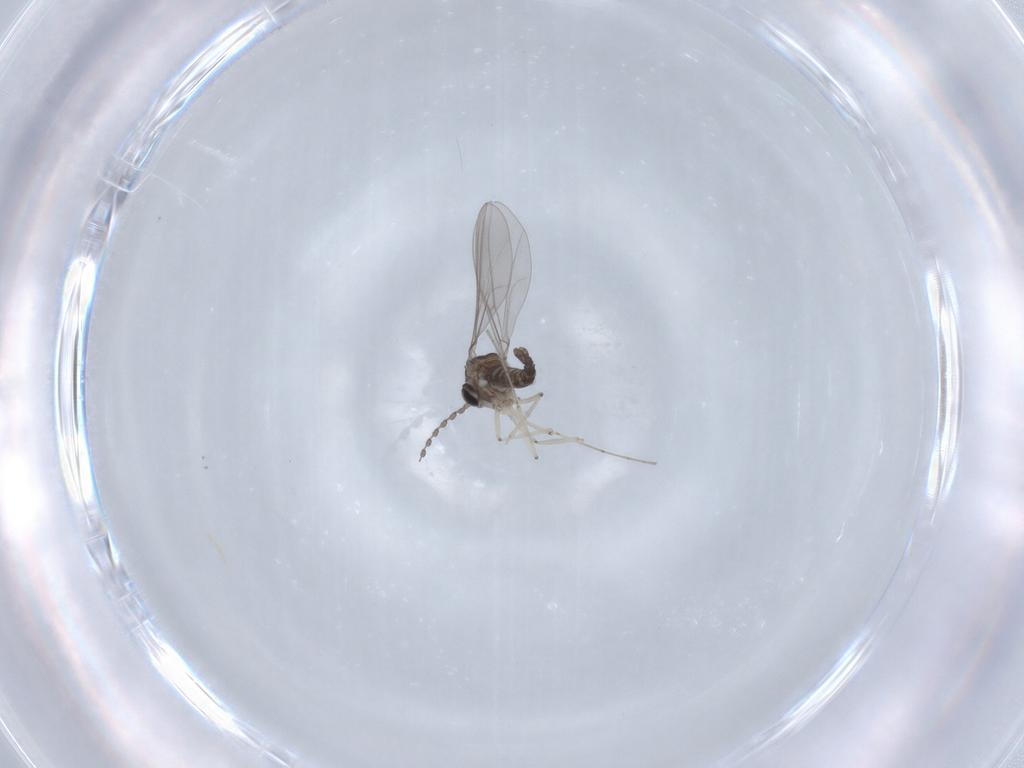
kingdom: Animalia
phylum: Arthropoda
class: Insecta
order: Diptera
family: Cecidomyiidae
